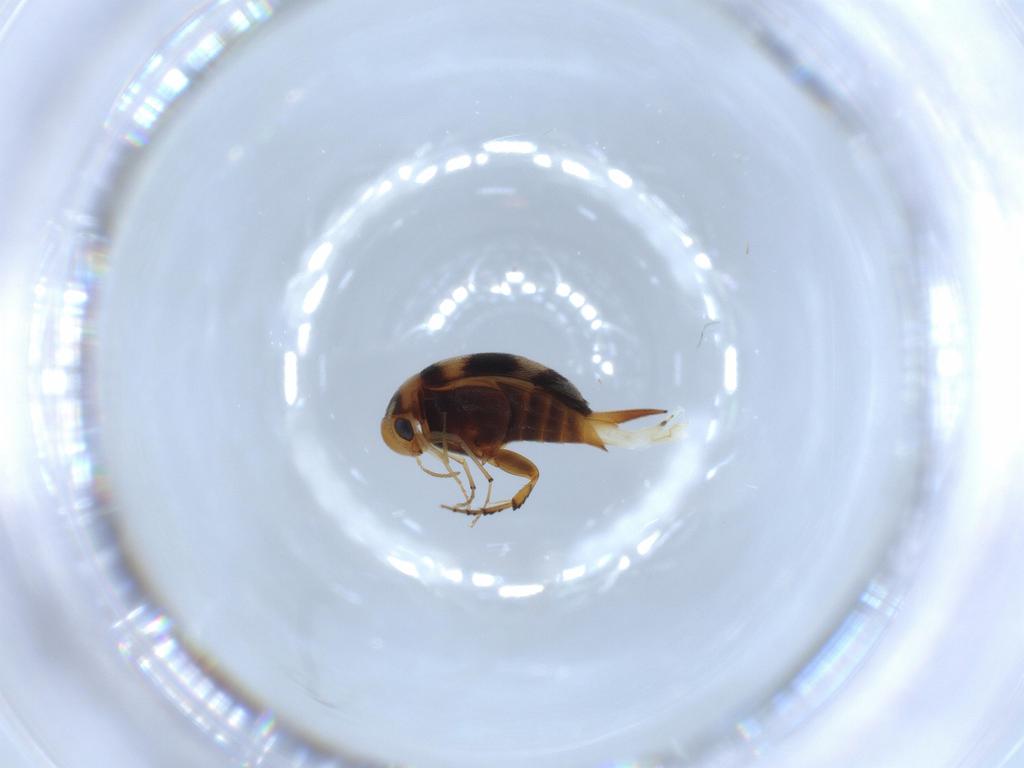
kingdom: Animalia
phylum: Arthropoda
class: Insecta
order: Coleoptera
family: Mordellidae
